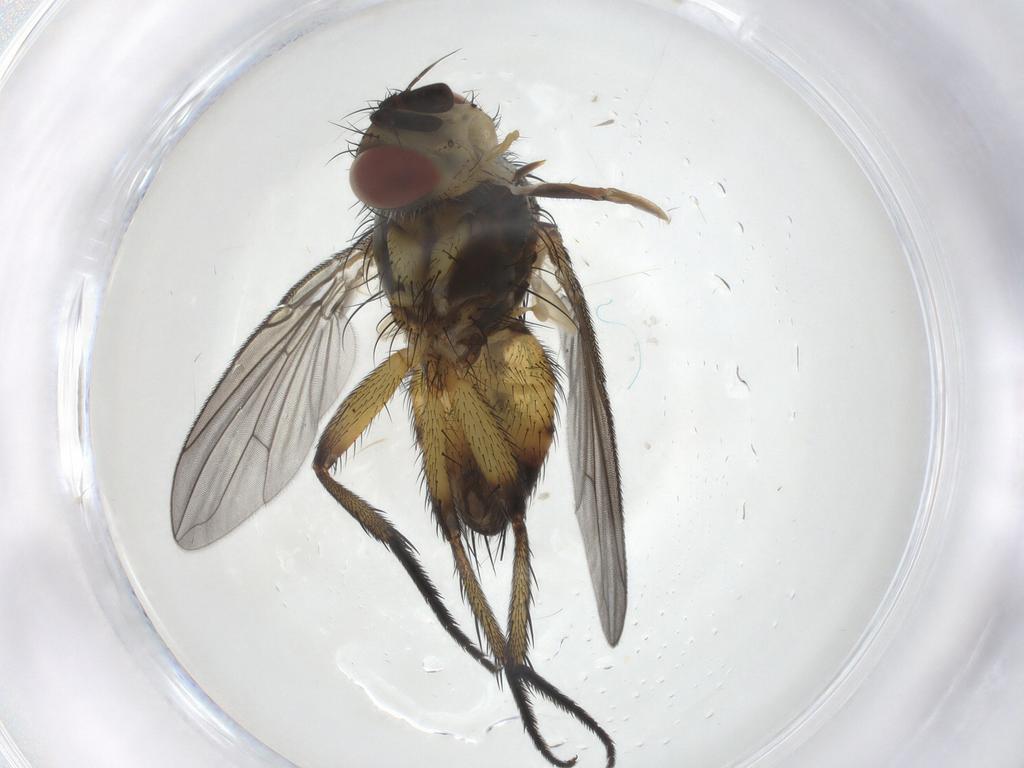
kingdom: Animalia
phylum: Arthropoda
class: Insecta
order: Diptera
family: Tachinidae
